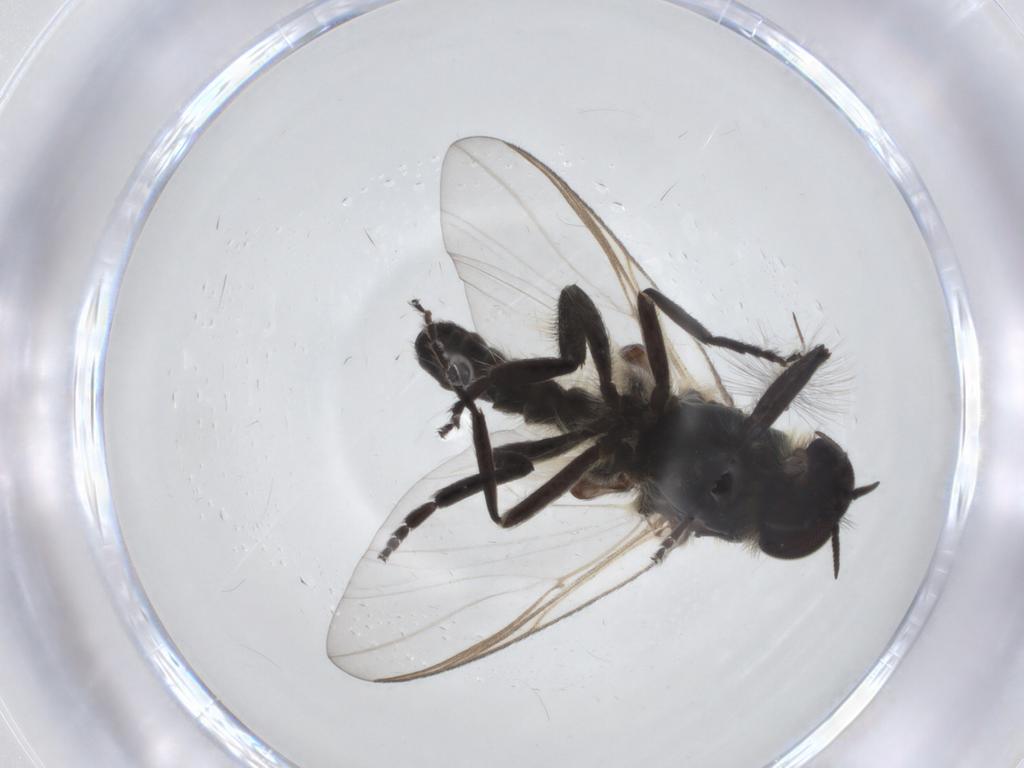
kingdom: Animalia
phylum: Arthropoda
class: Insecta
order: Diptera
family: Simuliidae
